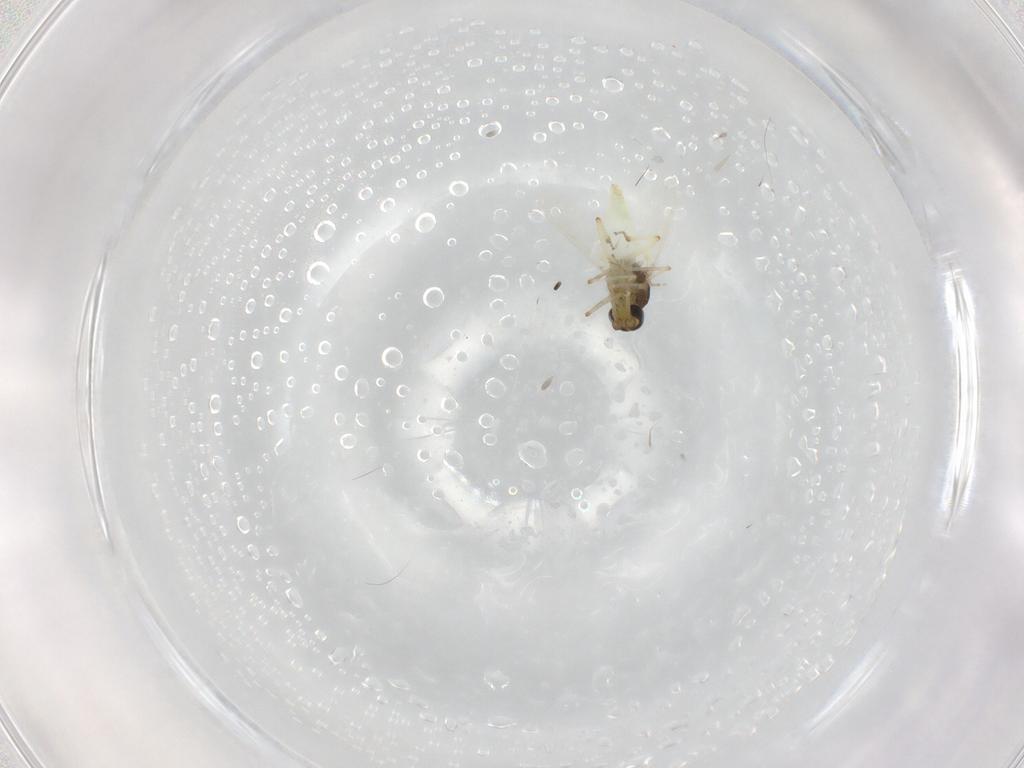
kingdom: Animalia
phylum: Arthropoda
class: Insecta
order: Diptera
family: Ceratopogonidae
